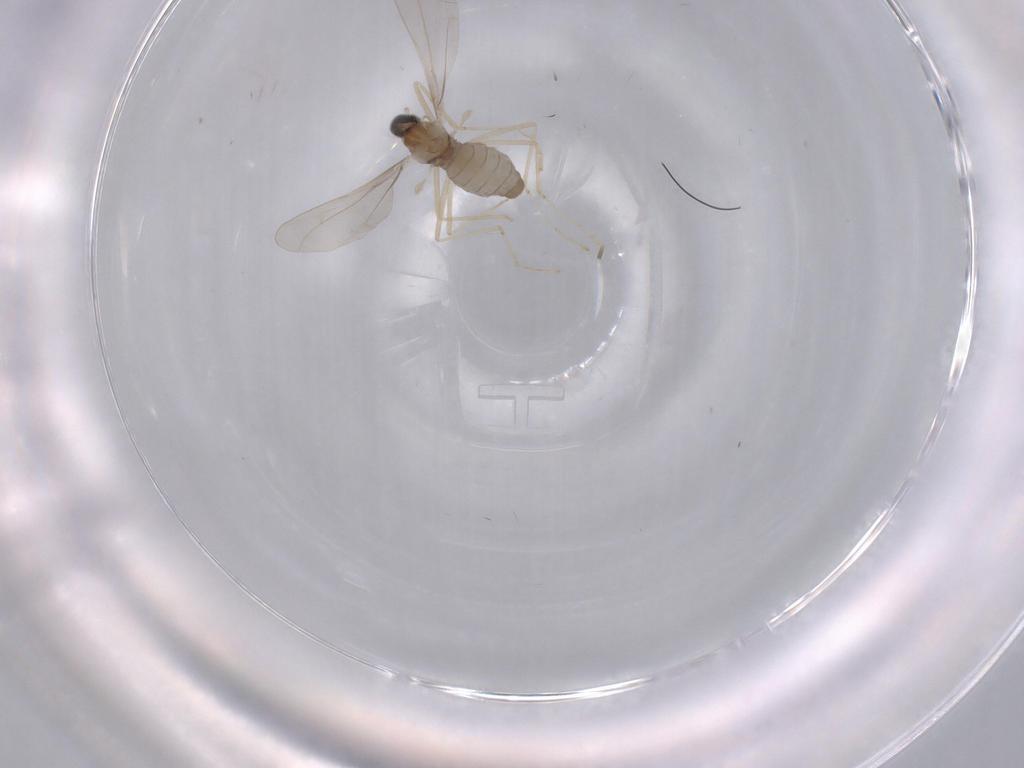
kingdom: Animalia
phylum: Arthropoda
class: Insecta
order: Diptera
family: Cecidomyiidae
